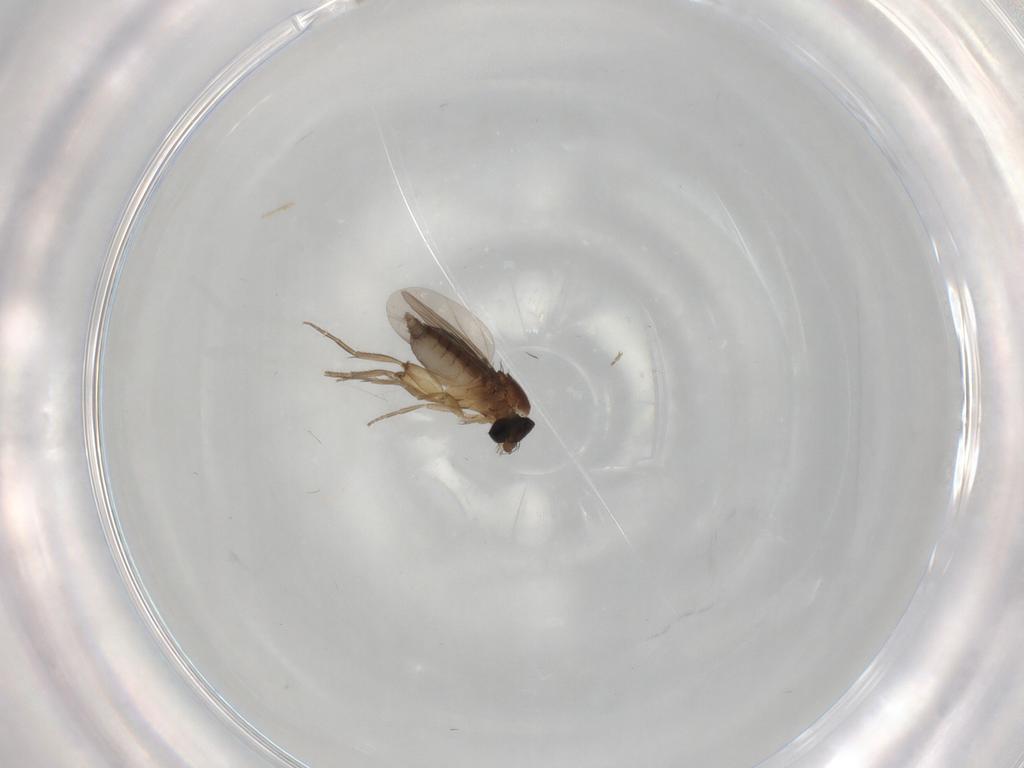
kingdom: Animalia
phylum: Arthropoda
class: Insecta
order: Diptera
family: Phoridae
